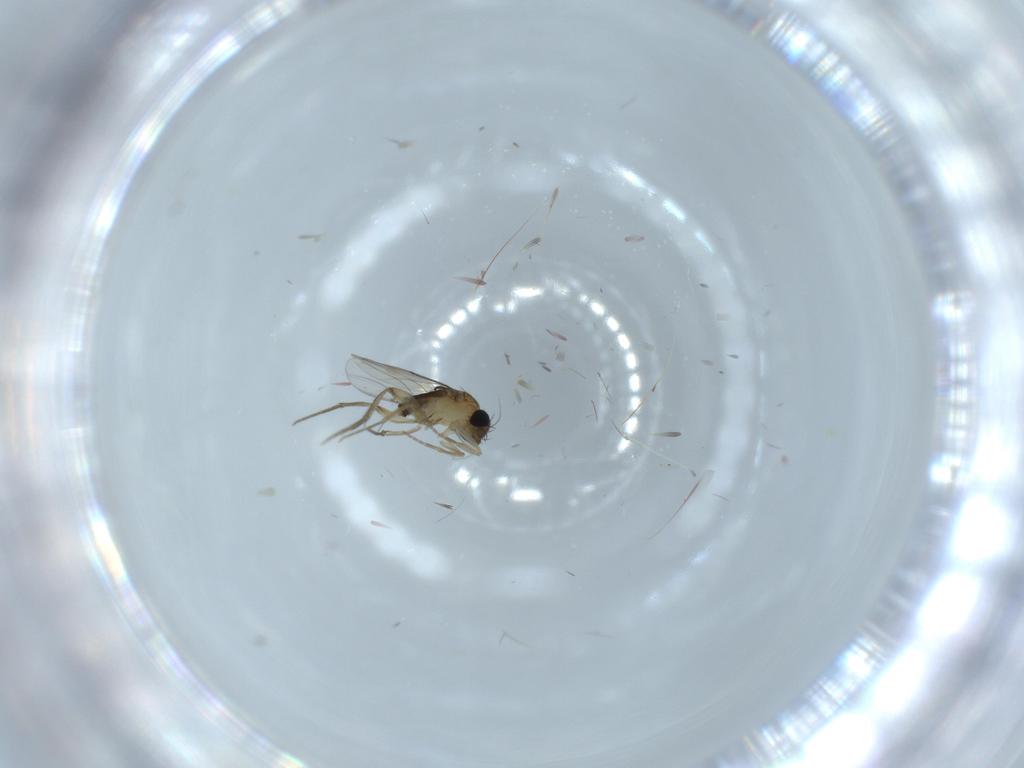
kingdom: Animalia
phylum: Arthropoda
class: Insecta
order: Diptera
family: Phoridae
